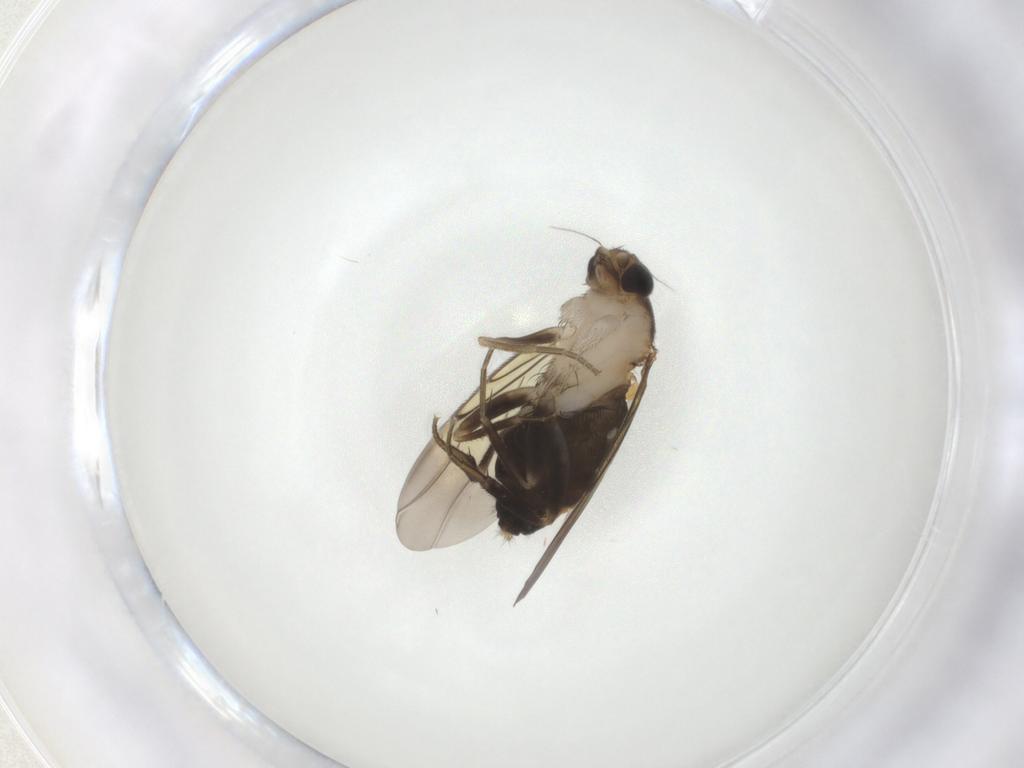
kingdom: Animalia
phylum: Arthropoda
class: Insecta
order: Diptera
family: Phoridae
